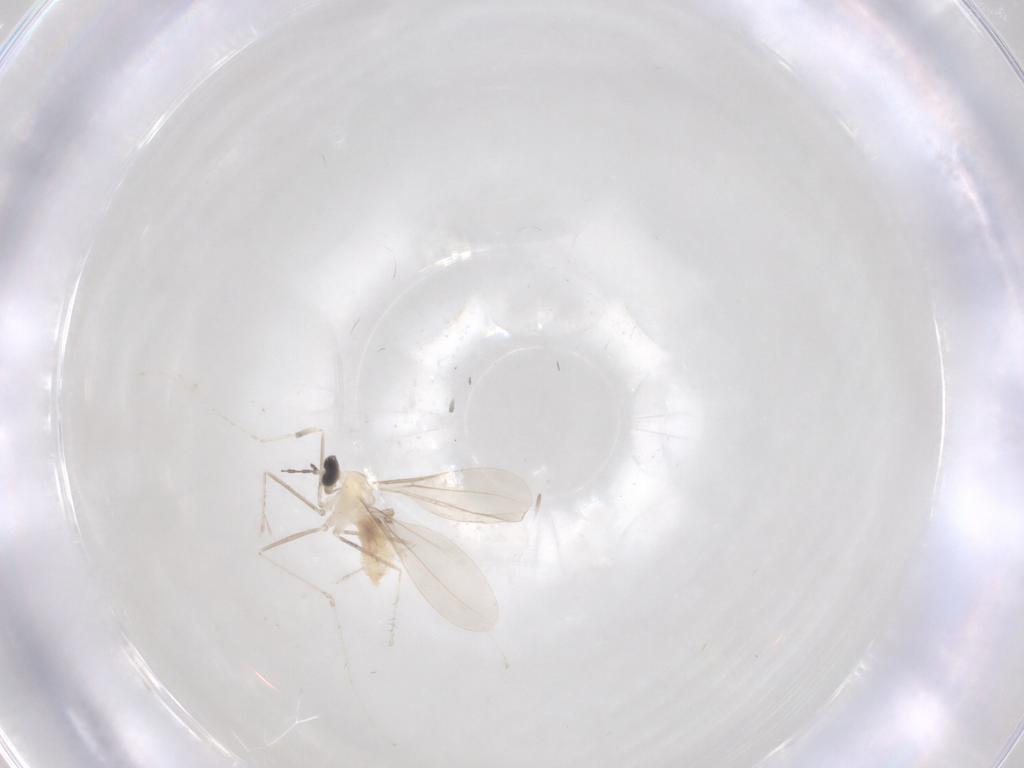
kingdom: Animalia
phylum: Arthropoda
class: Insecta
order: Diptera
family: Cecidomyiidae
